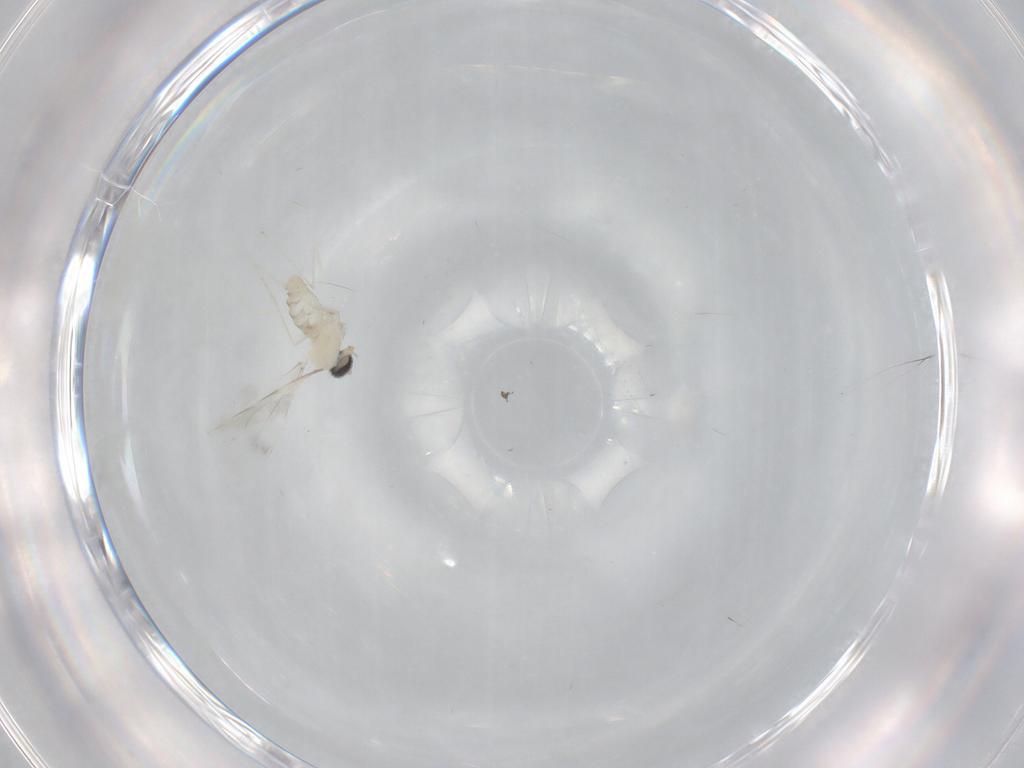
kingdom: Animalia
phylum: Arthropoda
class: Insecta
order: Diptera
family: Cecidomyiidae
